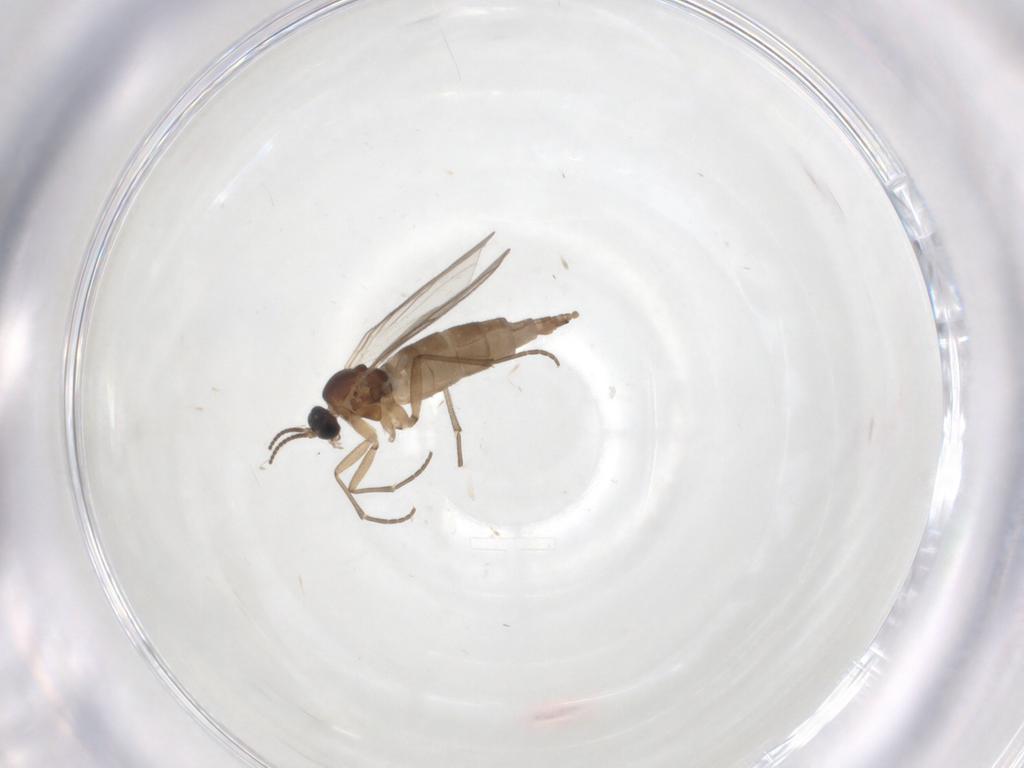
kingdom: Animalia
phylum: Arthropoda
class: Insecta
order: Diptera
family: Sciaridae
